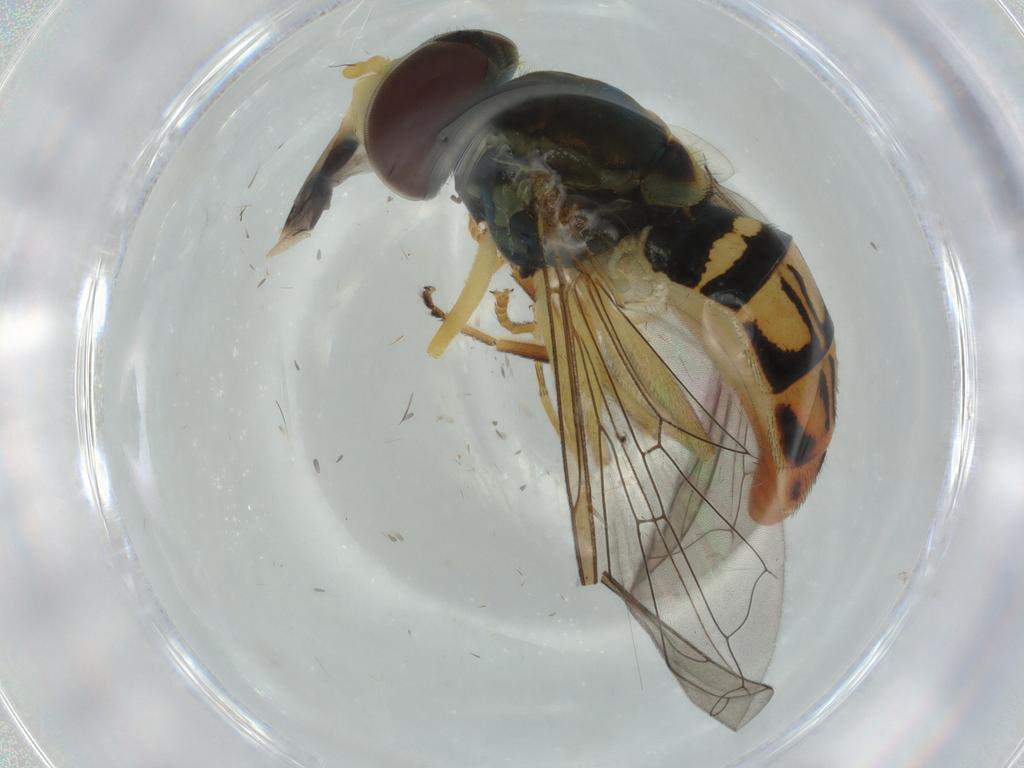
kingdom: Animalia
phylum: Arthropoda
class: Insecta
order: Diptera
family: Syrphidae
